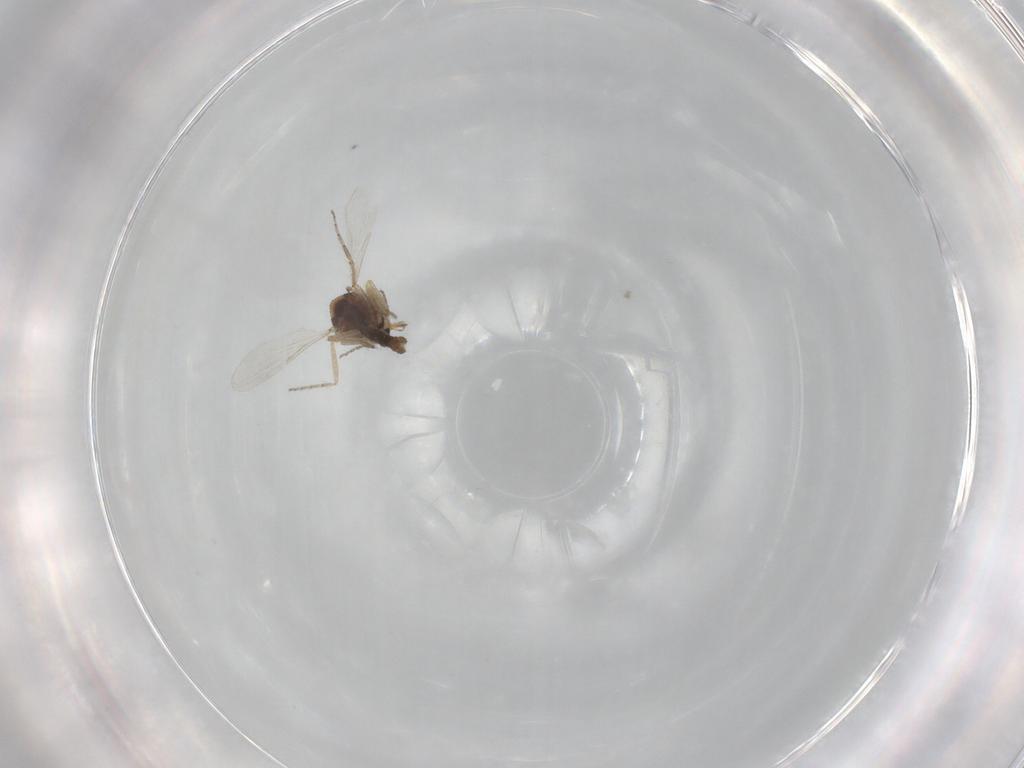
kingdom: Animalia
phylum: Arthropoda
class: Insecta
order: Diptera
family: Ceratopogonidae
